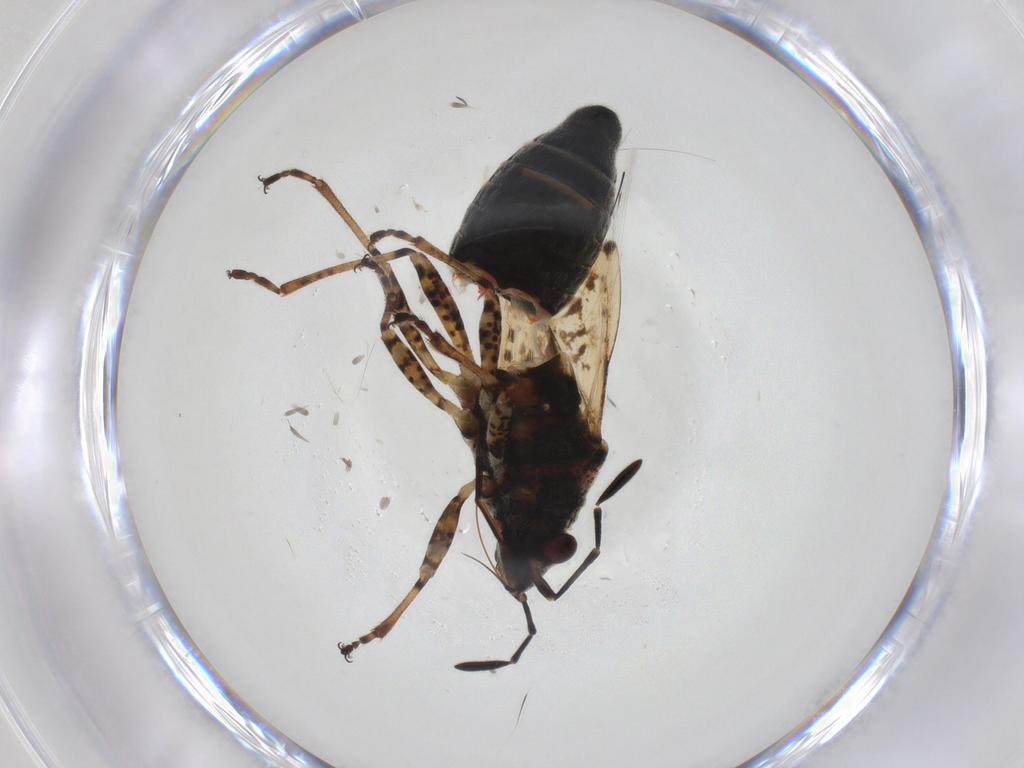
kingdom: Animalia
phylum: Arthropoda
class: Insecta
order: Hemiptera
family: Lygaeidae
